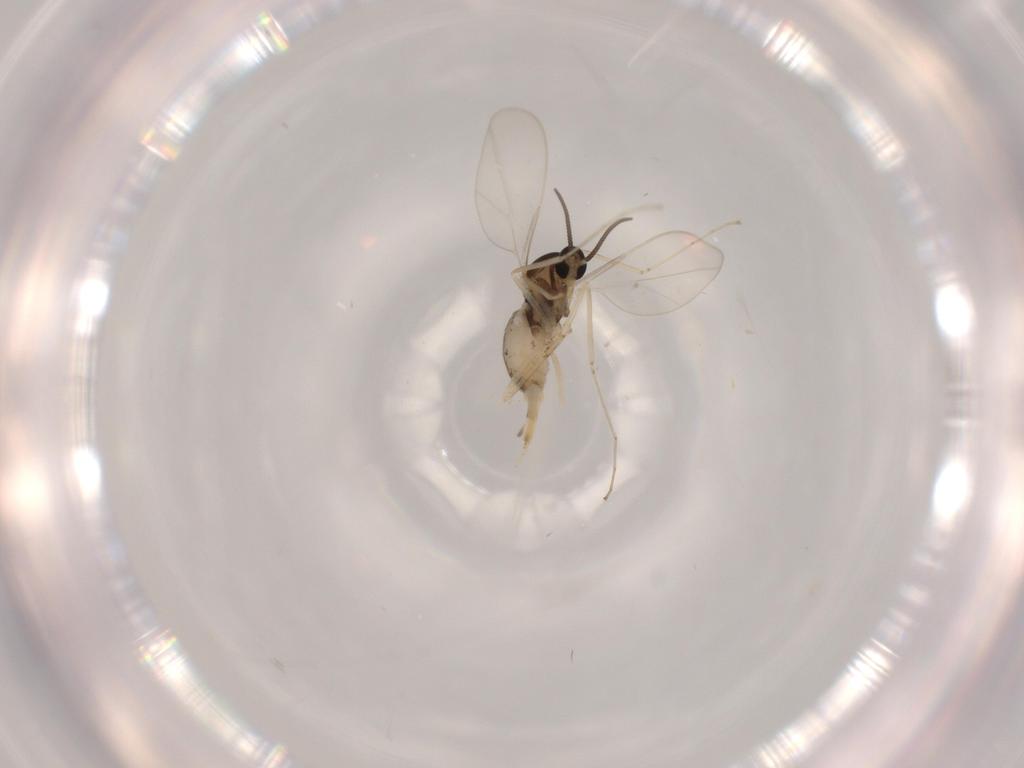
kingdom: Animalia
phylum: Arthropoda
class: Insecta
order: Diptera
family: Cecidomyiidae
